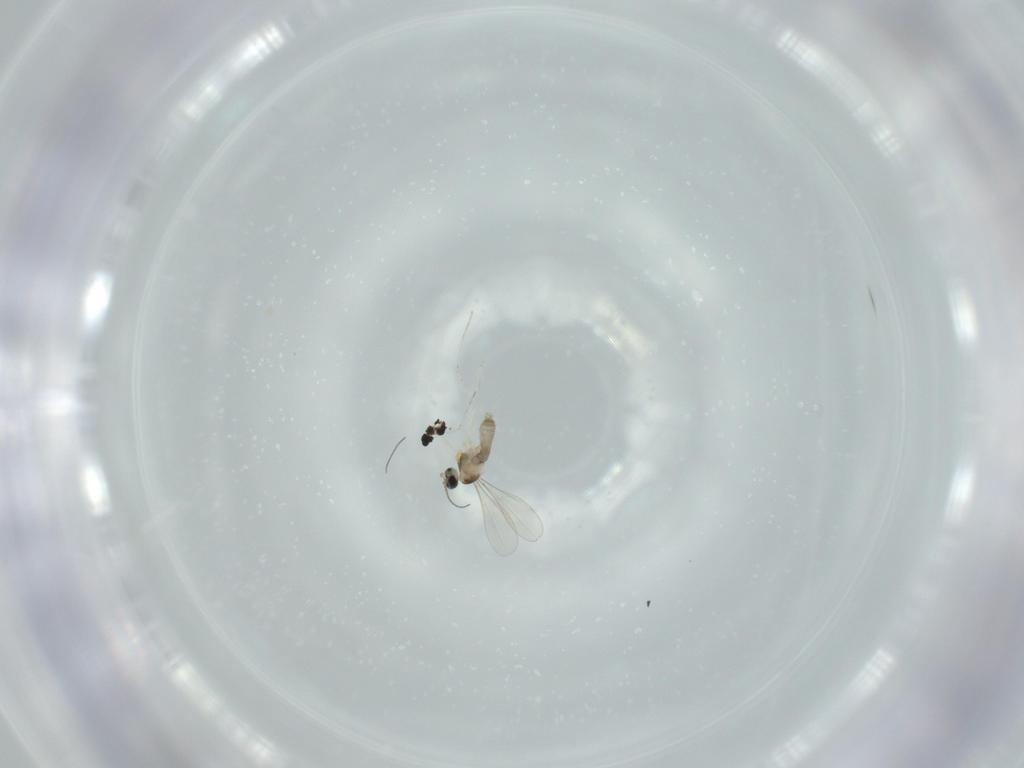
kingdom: Animalia
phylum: Arthropoda
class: Insecta
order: Diptera
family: Cecidomyiidae
